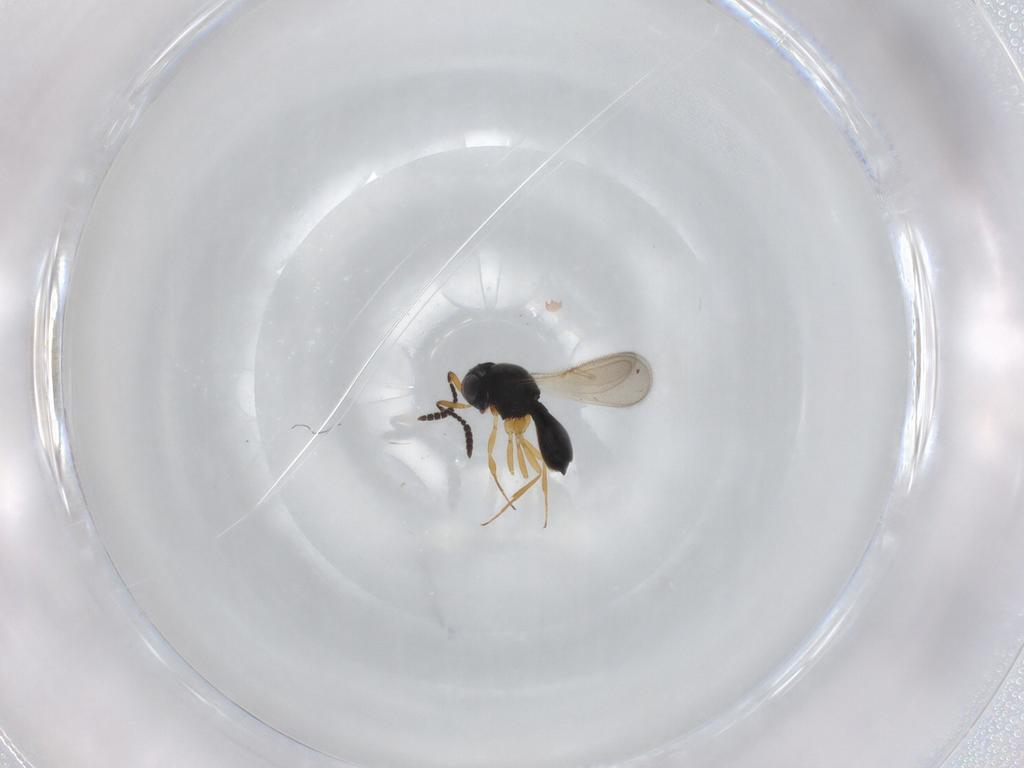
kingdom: Animalia
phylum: Arthropoda
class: Insecta
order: Hymenoptera
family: Scelionidae
